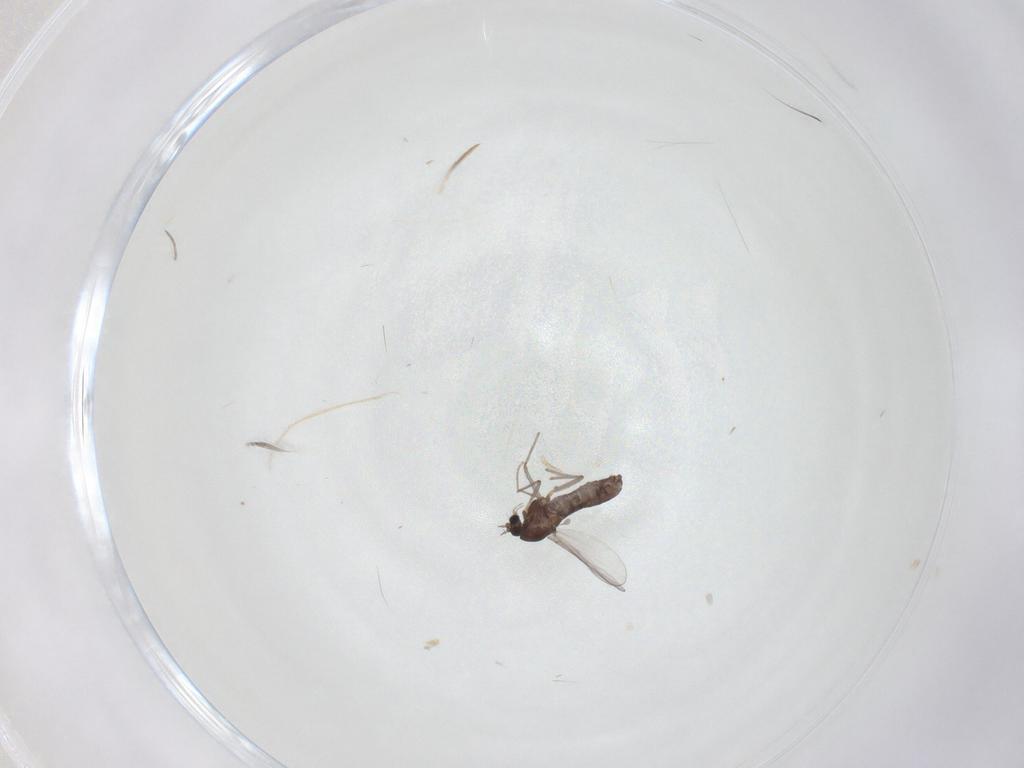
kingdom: Animalia
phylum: Arthropoda
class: Insecta
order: Diptera
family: Chironomidae
